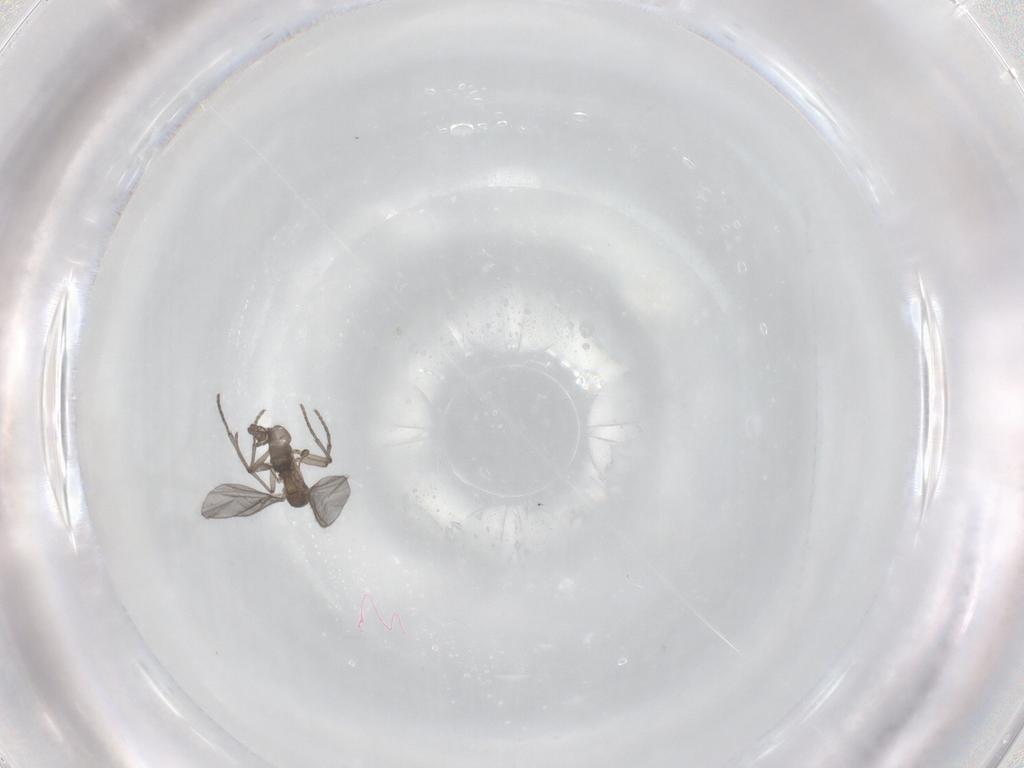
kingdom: Animalia
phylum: Arthropoda
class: Insecta
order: Diptera
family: Sciaridae
